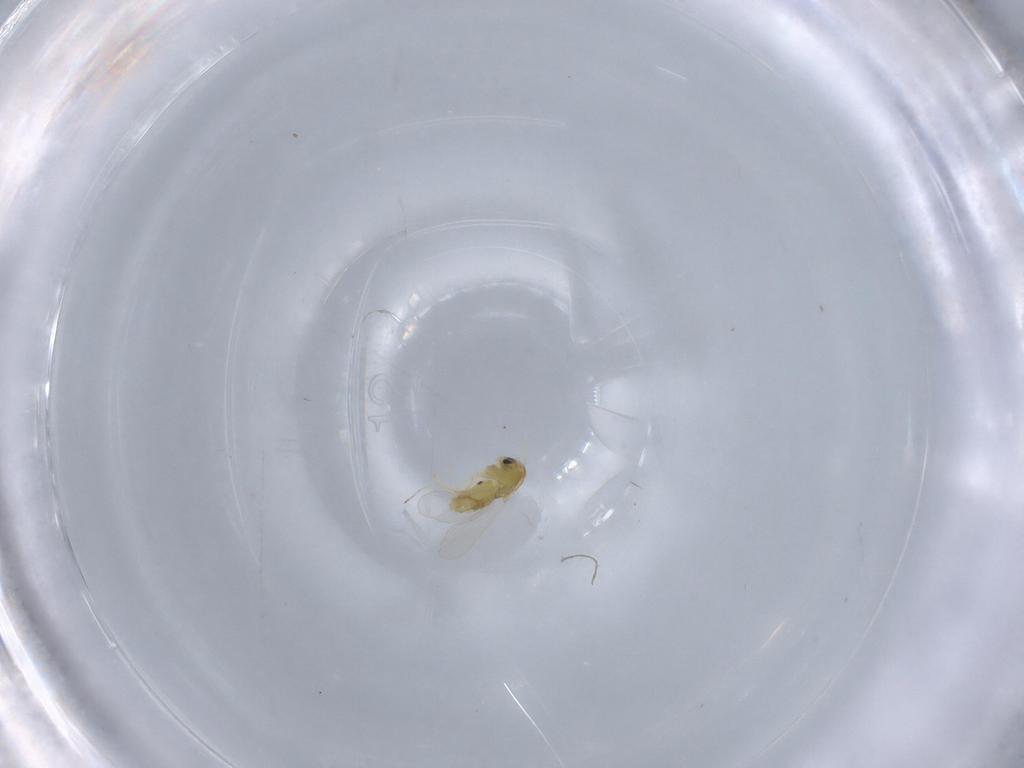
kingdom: Animalia
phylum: Arthropoda
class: Insecta
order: Diptera
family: Chironomidae
